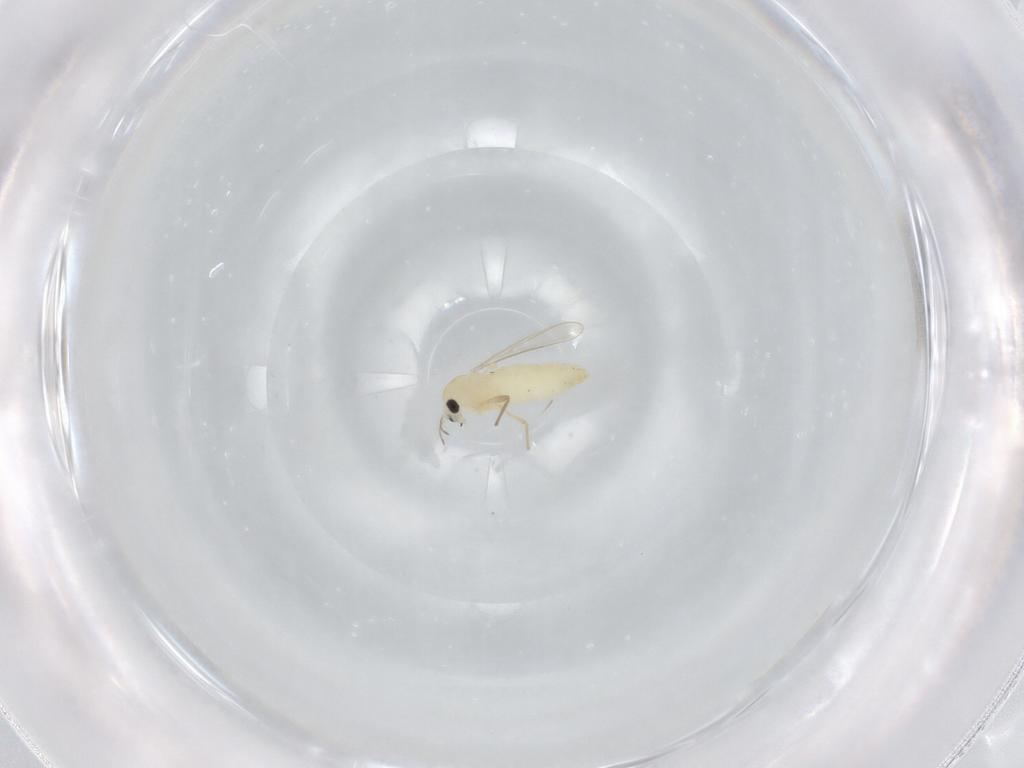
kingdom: Animalia
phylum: Arthropoda
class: Insecta
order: Diptera
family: Chironomidae
